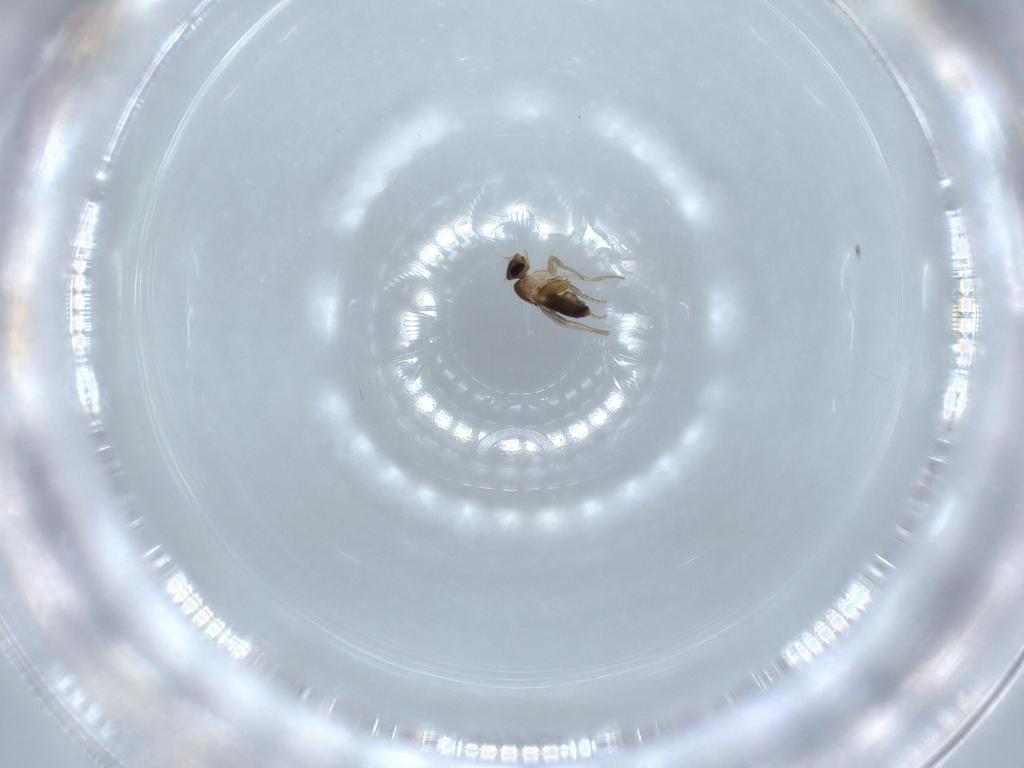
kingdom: Animalia
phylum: Arthropoda
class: Insecta
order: Diptera
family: Phoridae
